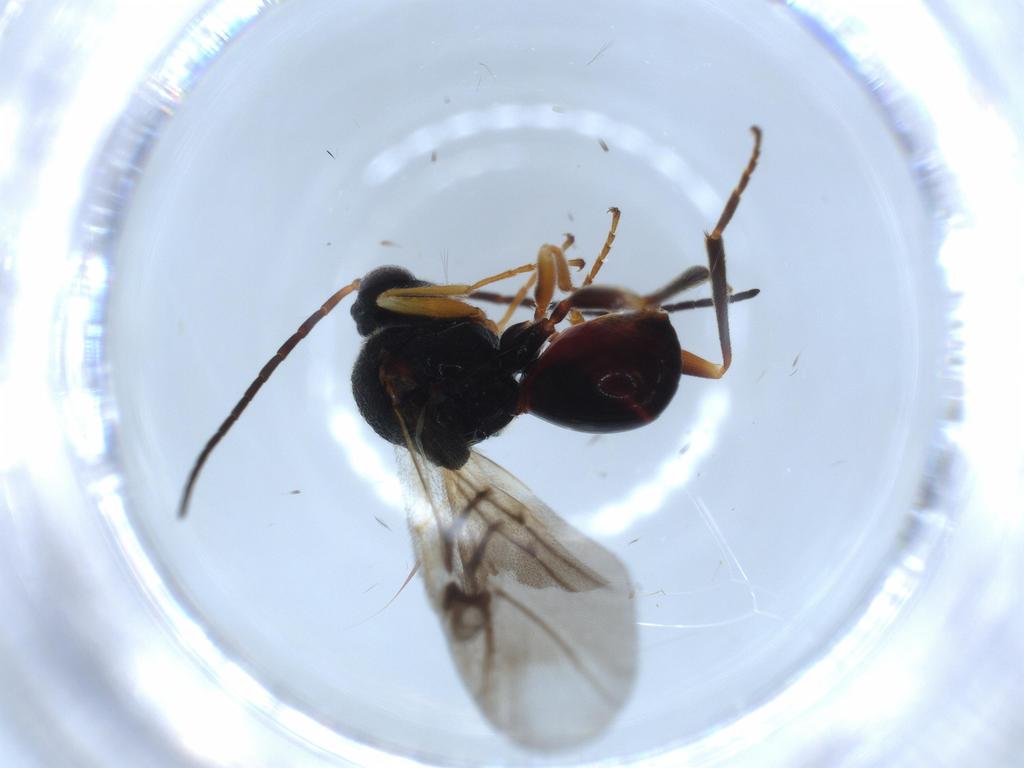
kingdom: Animalia
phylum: Arthropoda
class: Insecta
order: Hymenoptera
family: Ichneumonidae
